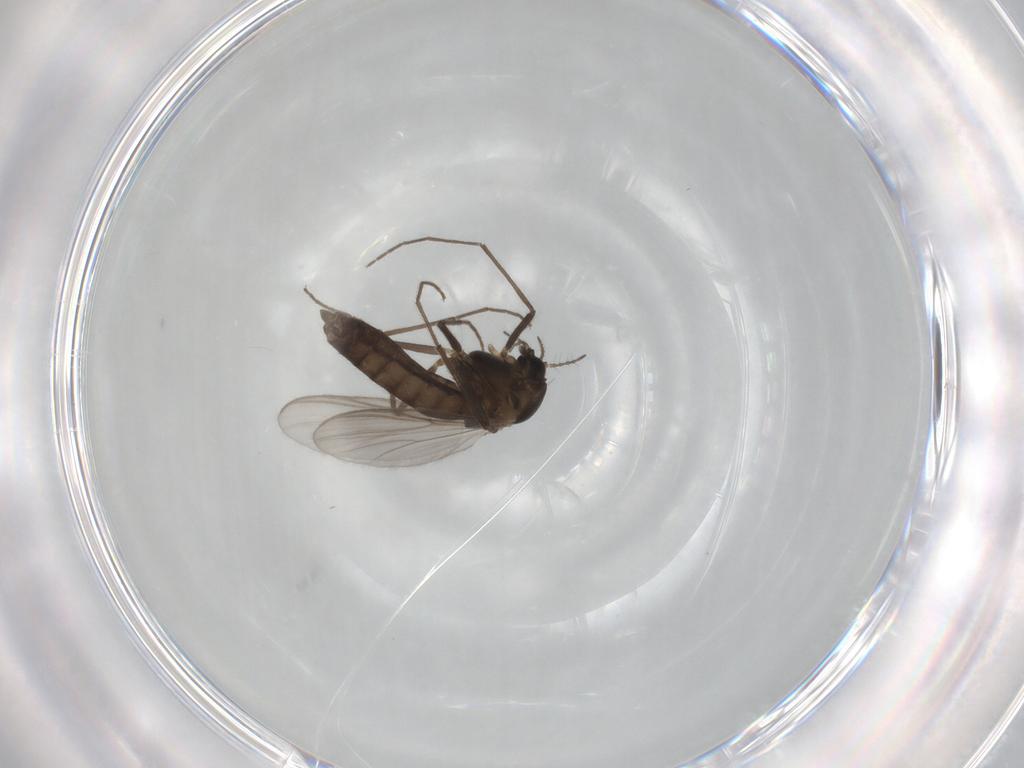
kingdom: Animalia
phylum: Arthropoda
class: Insecta
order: Diptera
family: Chironomidae
